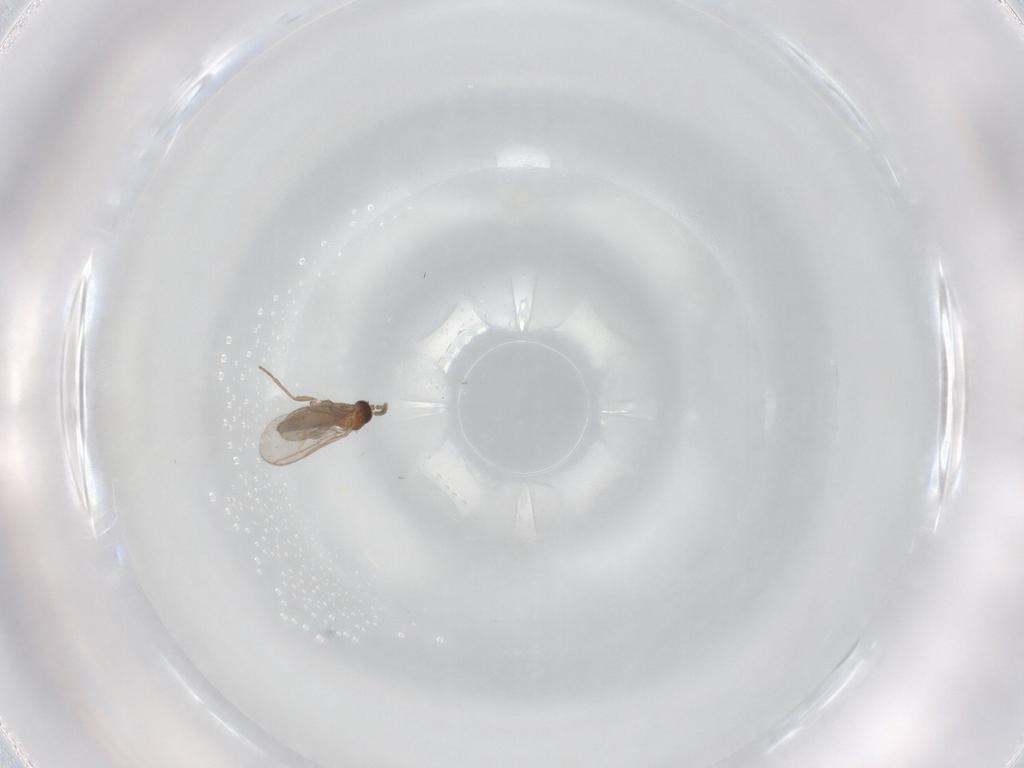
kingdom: Animalia
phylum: Arthropoda
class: Insecta
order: Diptera
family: Sciaridae
